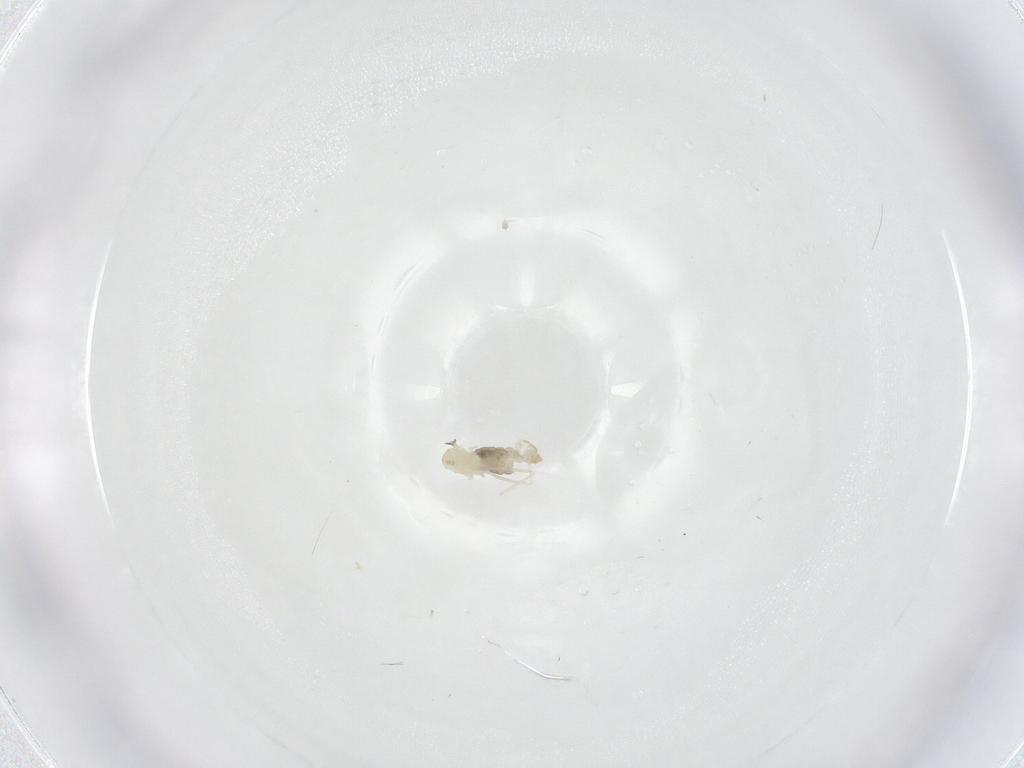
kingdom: Animalia
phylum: Arthropoda
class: Insecta
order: Diptera
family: Cecidomyiidae
